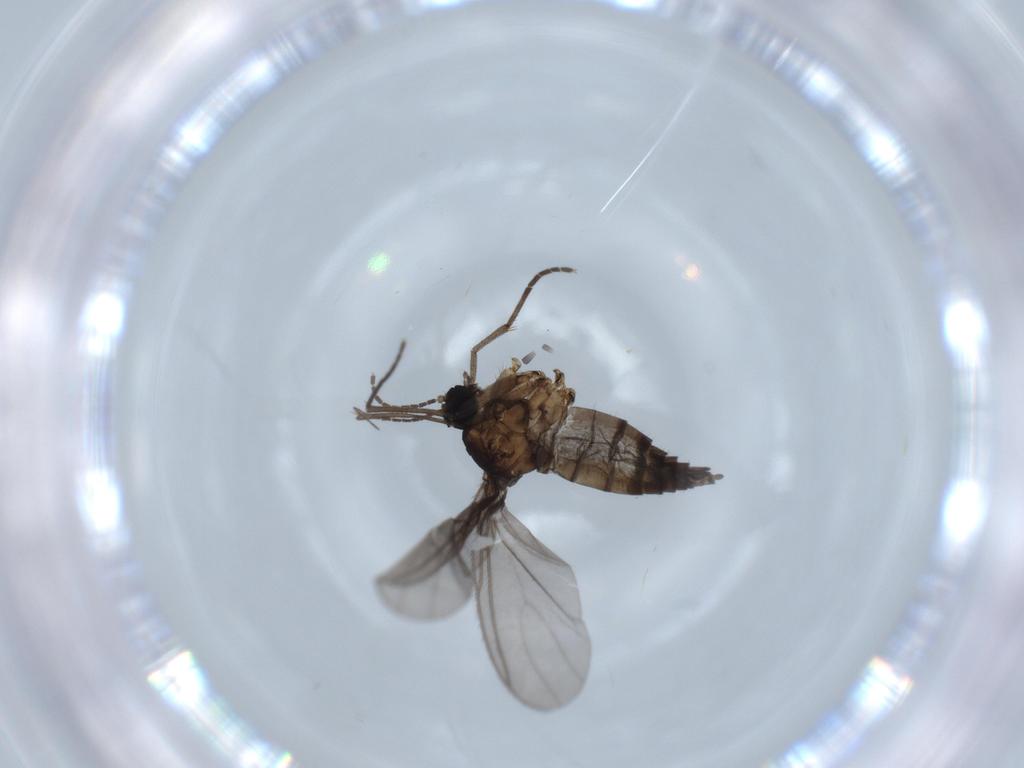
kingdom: Animalia
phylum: Arthropoda
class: Insecta
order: Diptera
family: Sciaridae
